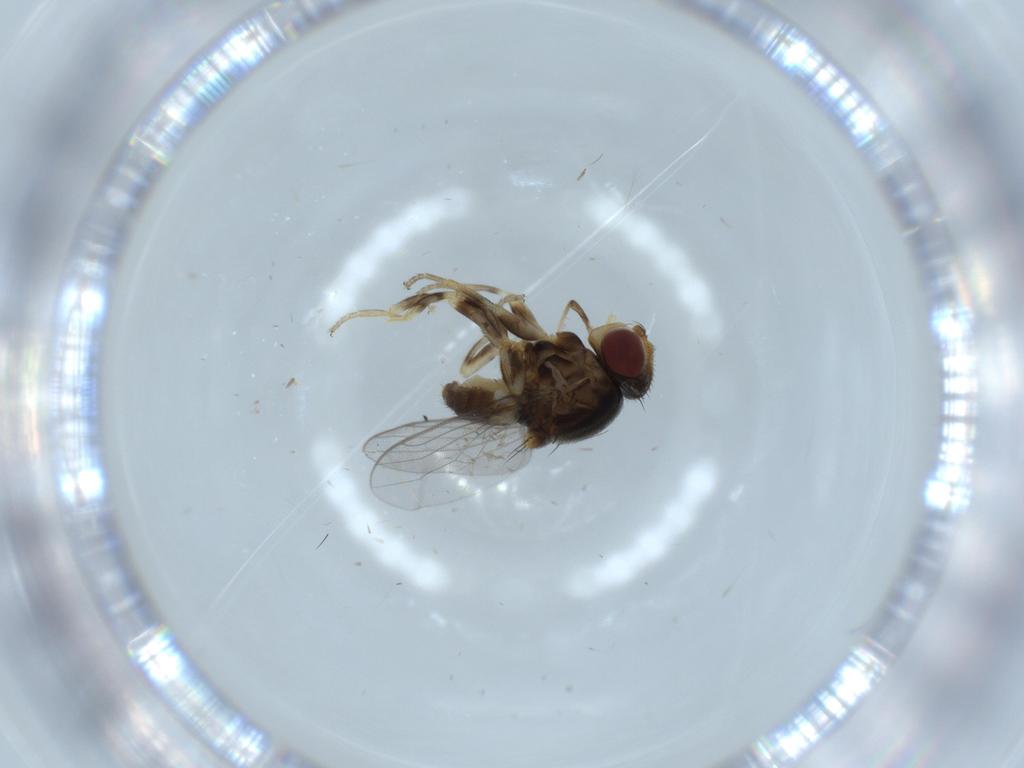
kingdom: Animalia
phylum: Arthropoda
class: Insecta
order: Diptera
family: Chloropidae
